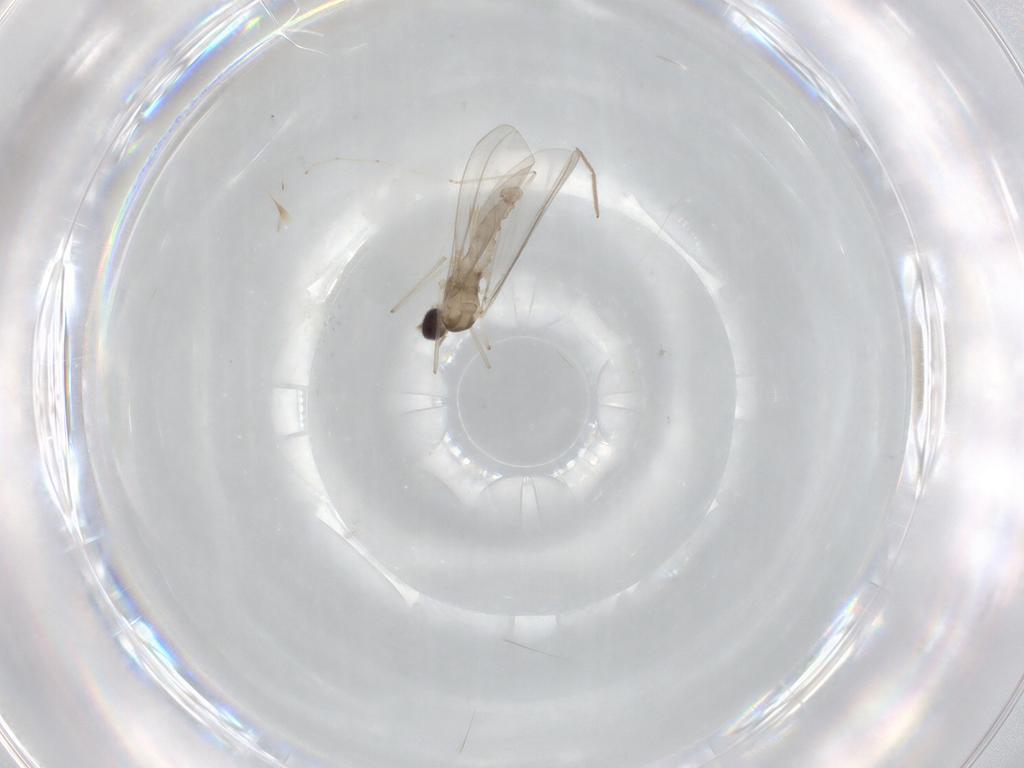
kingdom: Animalia
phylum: Arthropoda
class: Insecta
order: Diptera
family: Cecidomyiidae
